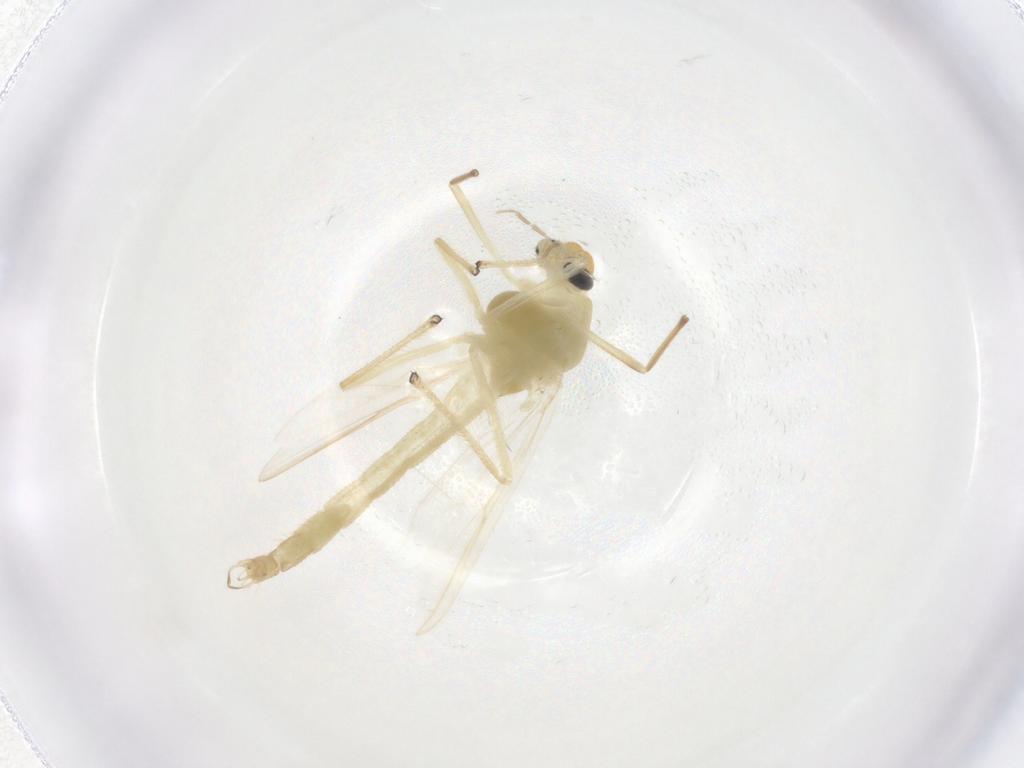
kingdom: Animalia
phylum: Arthropoda
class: Insecta
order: Diptera
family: Chironomidae
